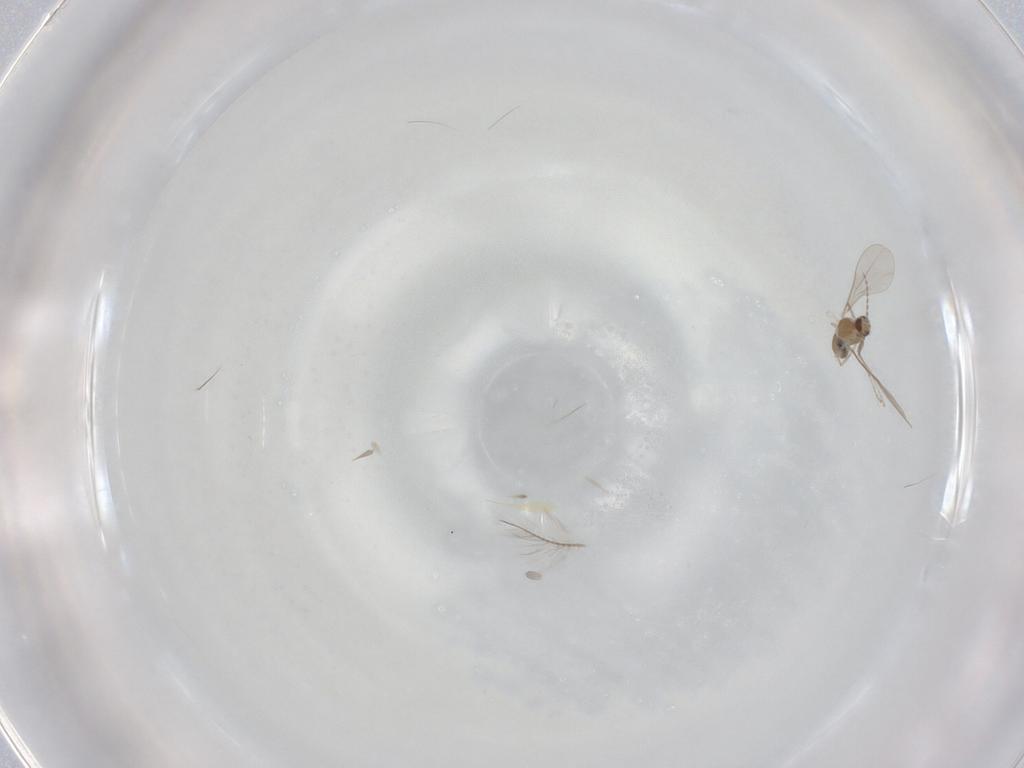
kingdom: Animalia
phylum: Arthropoda
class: Insecta
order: Diptera
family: Cecidomyiidae
